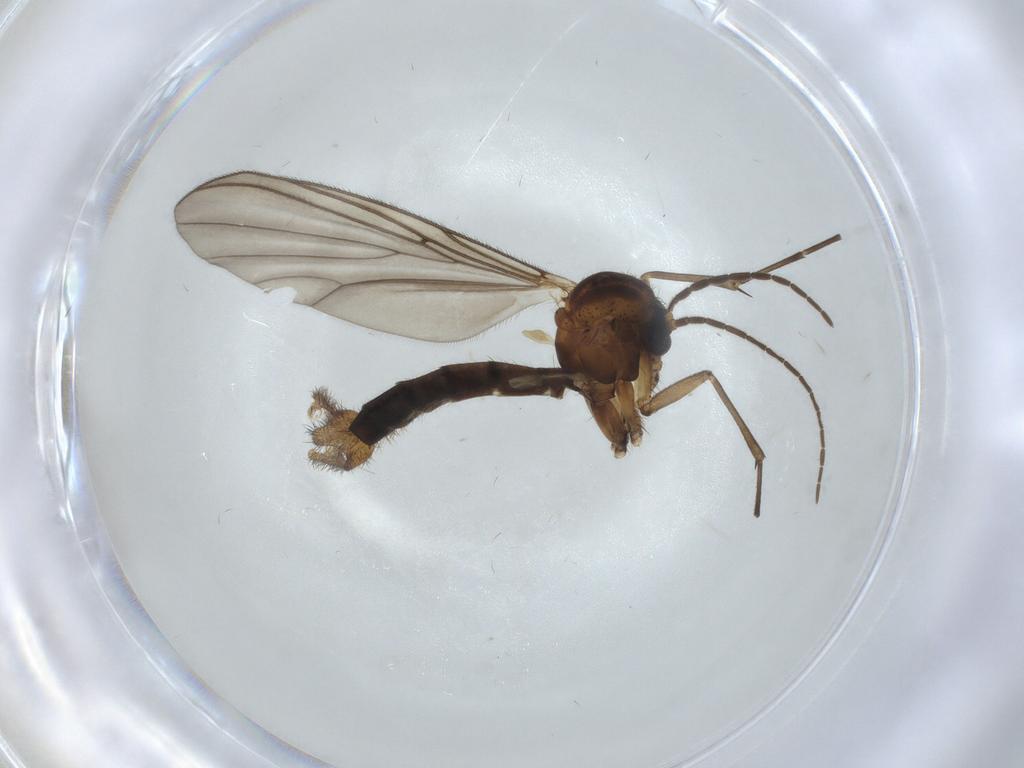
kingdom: Animalia
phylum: Arthropoda
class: Insecta
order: Diptera
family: Mycetophilidae
